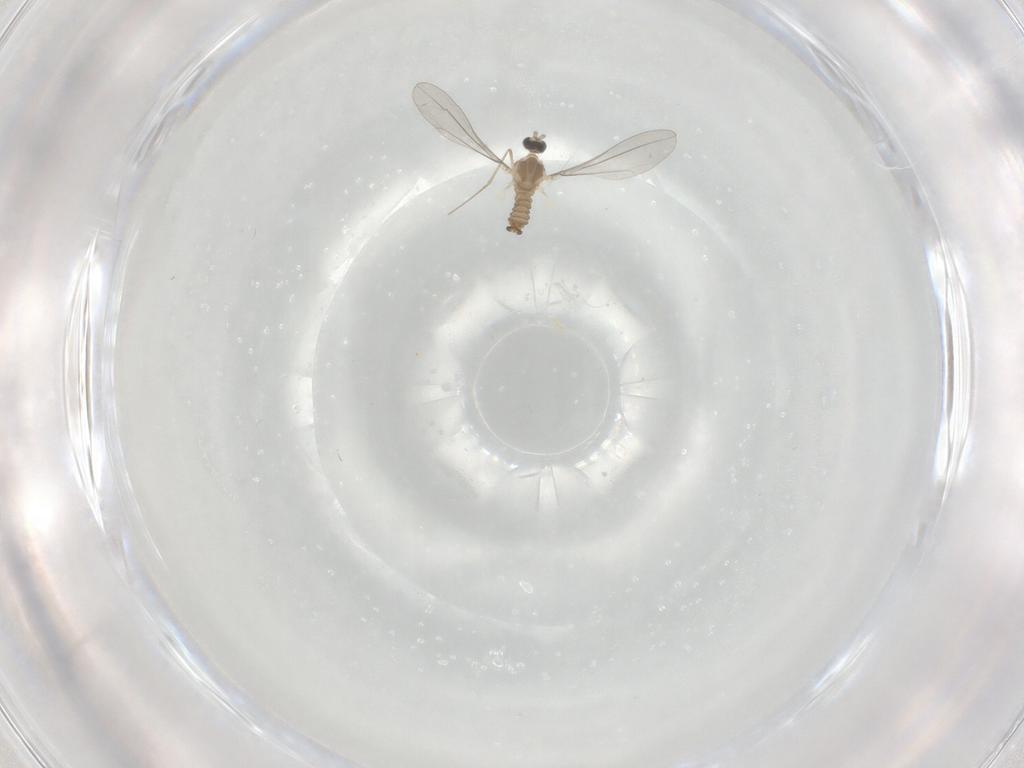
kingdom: Animalia
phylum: Arthropoda
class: Insecta
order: Diptera
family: Cecidomyiidae
